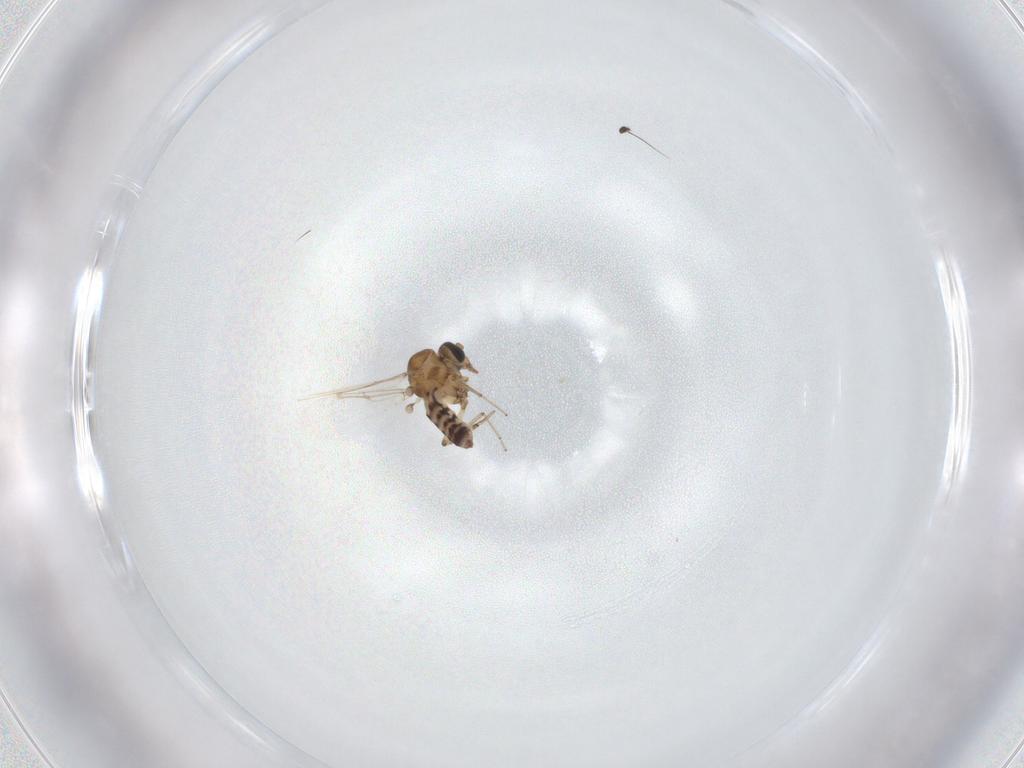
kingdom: Animalia
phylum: Arthropoda
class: Insecta
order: Diptera
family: Ceratopogonidae
